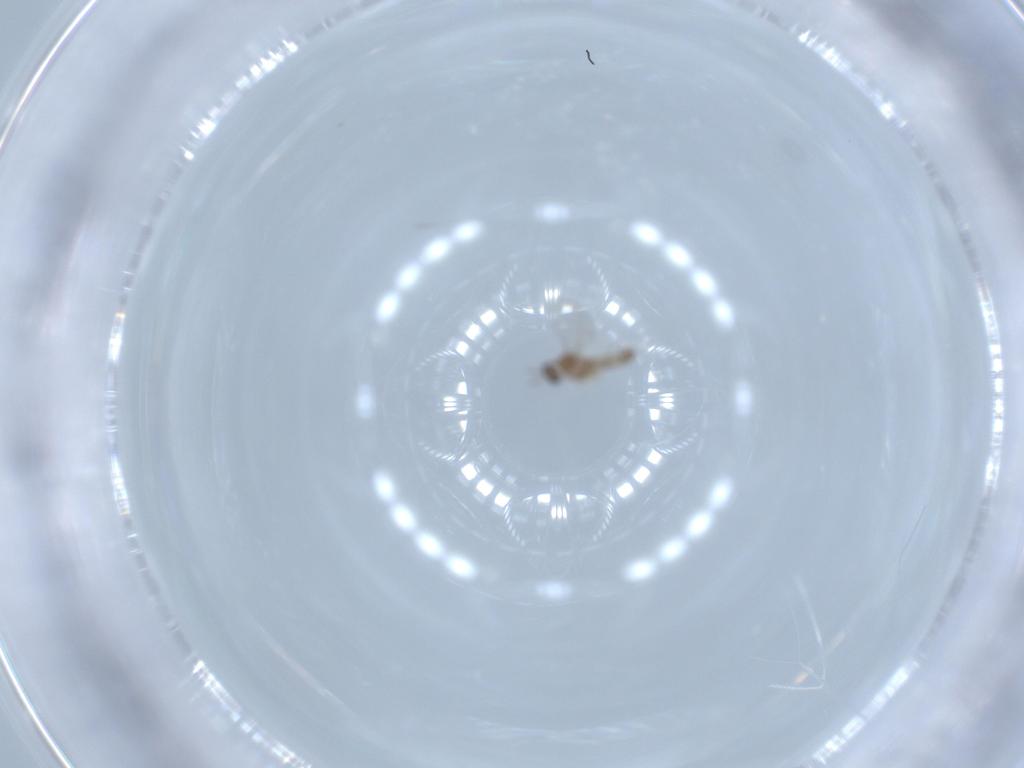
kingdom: Animalia
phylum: Arthropoda
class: Insecta
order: Diptera
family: Cecidomyiidae
